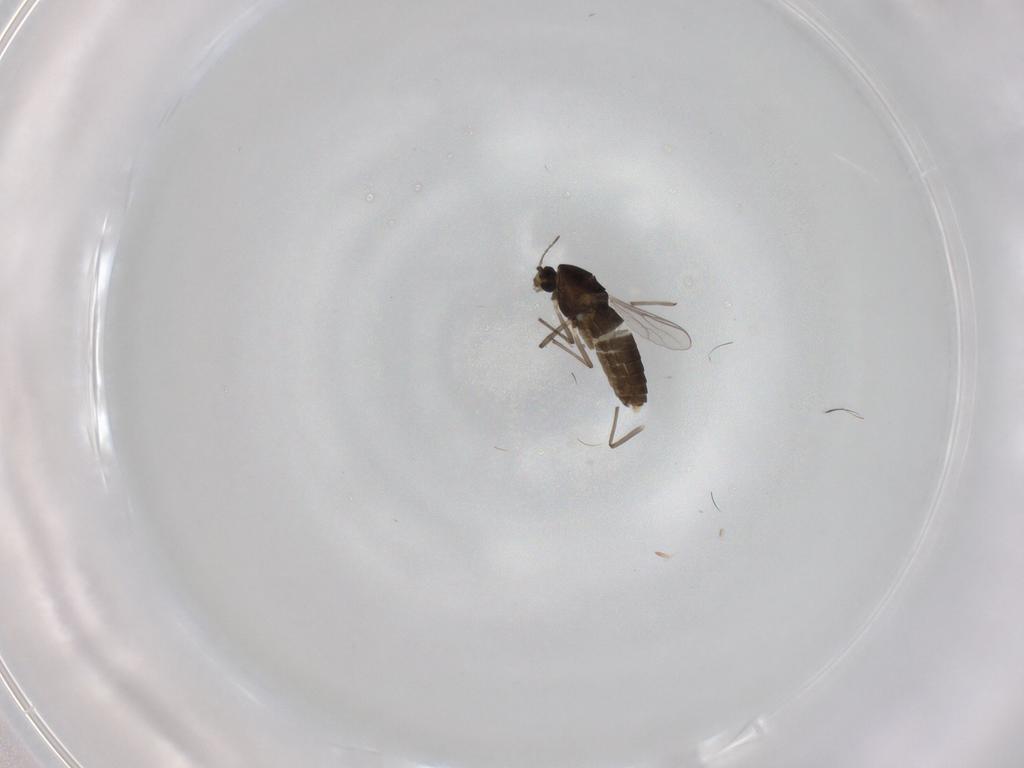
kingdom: Animalia
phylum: Arthropoda
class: Insecta
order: Diptera
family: Chironomidae
